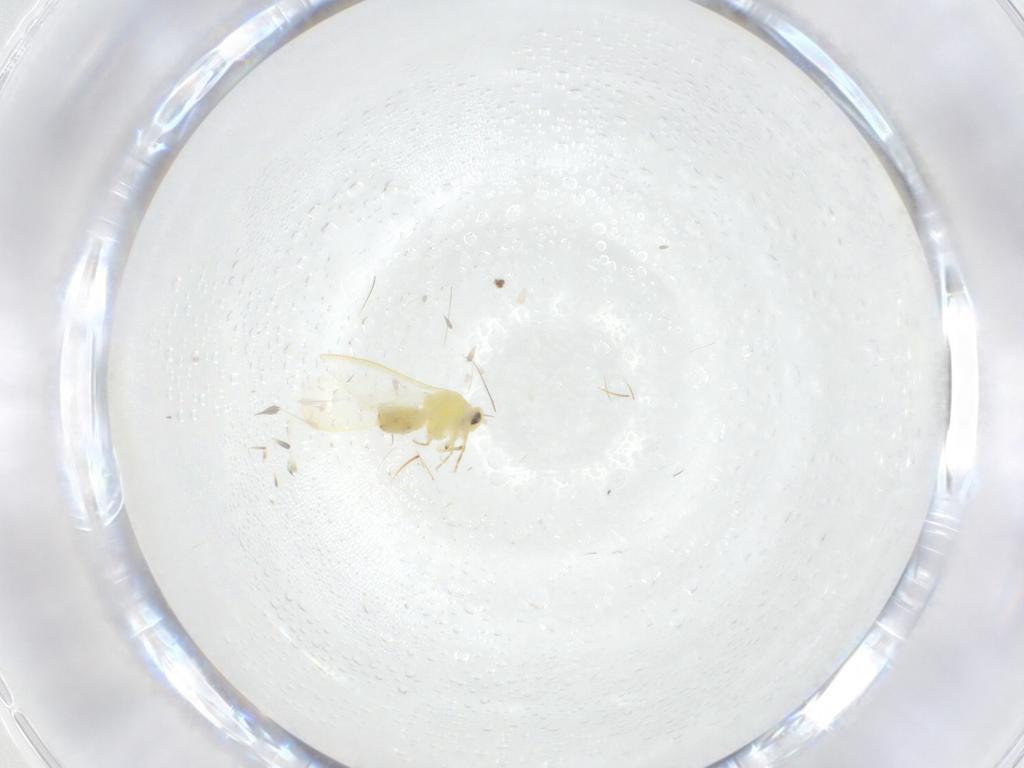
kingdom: Animalia
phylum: Arthropoda
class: Insecta
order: Hemiptera
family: Aleyrodidae
